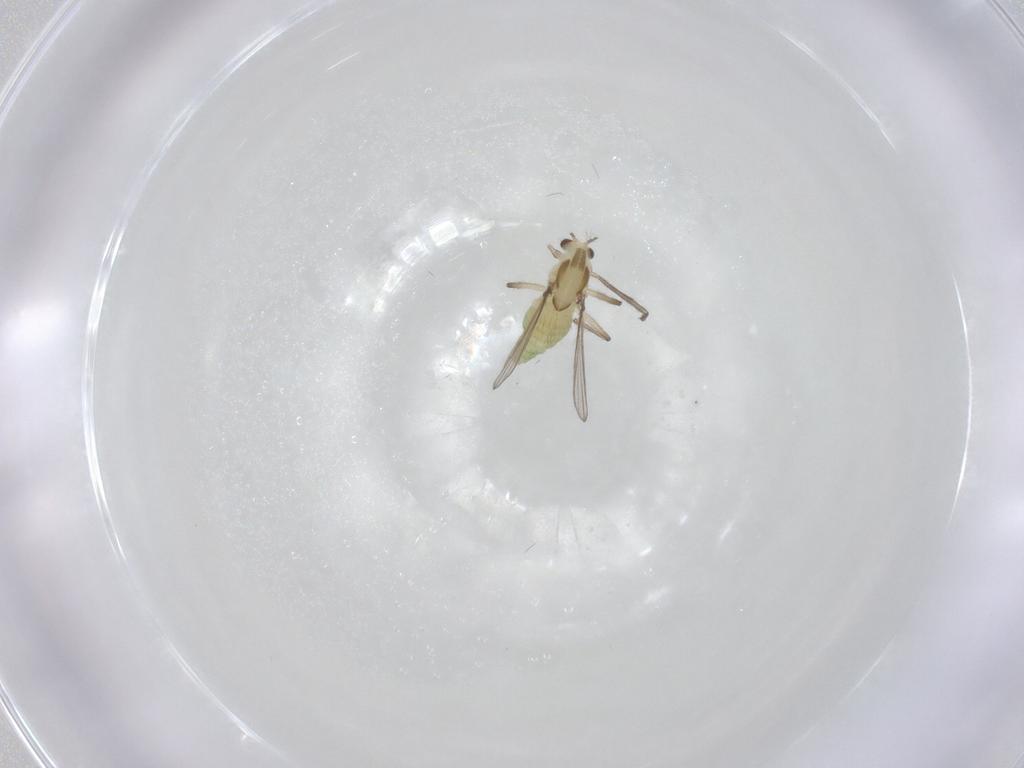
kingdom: Animalia
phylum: Arthropoda
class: Insecta
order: Diptera
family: Chironomidae
